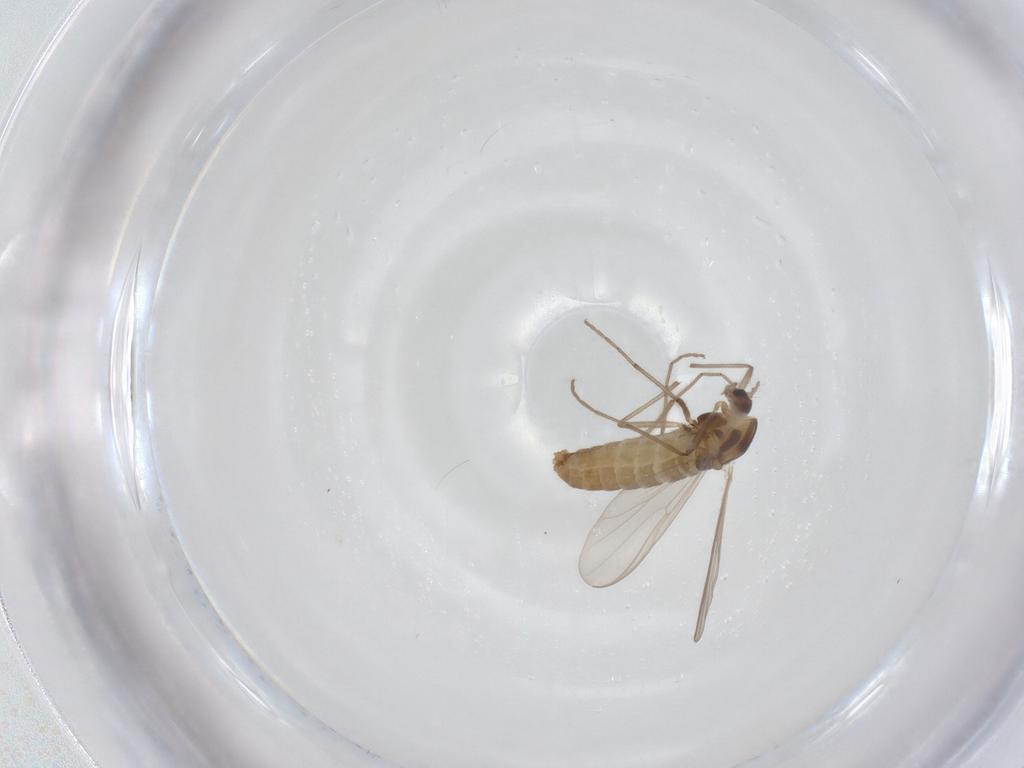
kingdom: Animalia
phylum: Arthropoda
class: Insecta
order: Diptera
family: Chironomidae
